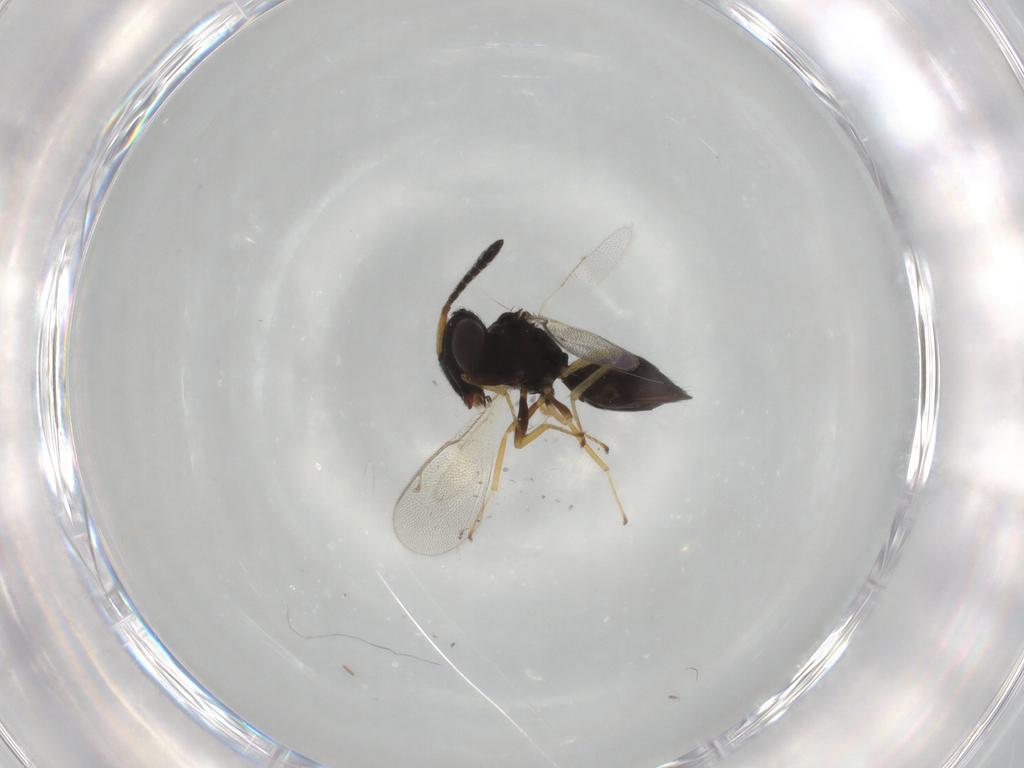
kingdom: Animalia
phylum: Arthropoda
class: Insecta
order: Hymenoptera
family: Pteromalidae
